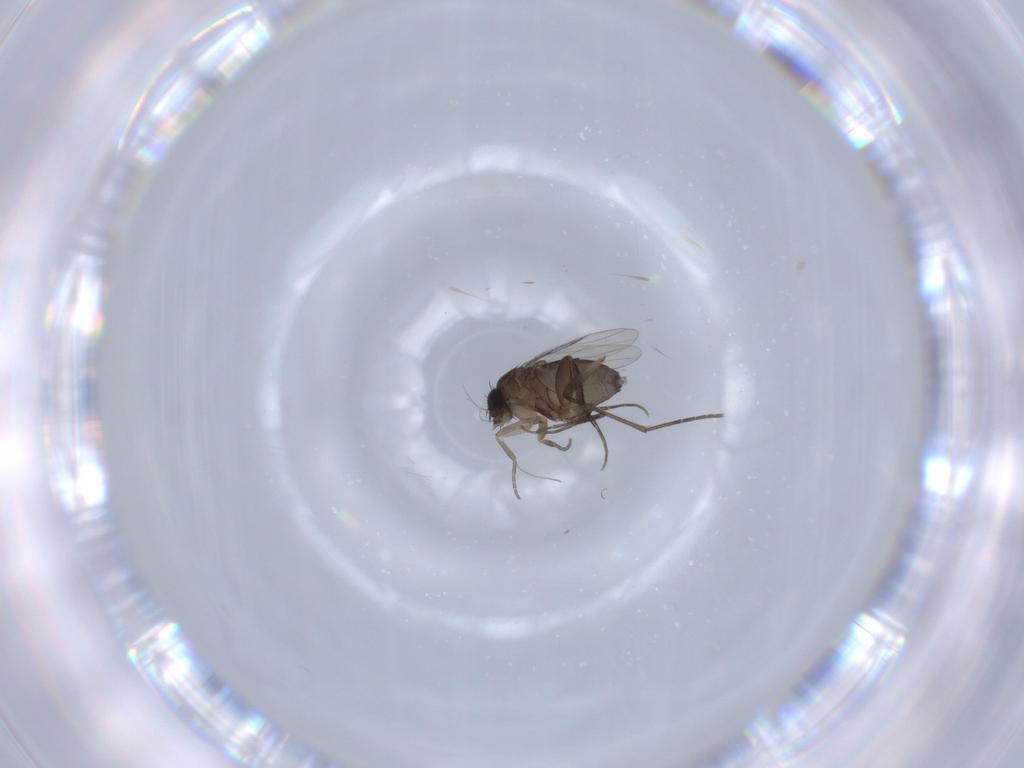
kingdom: Animalia
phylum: Arthropoda
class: Insecta
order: Diptera
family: Phoridae
